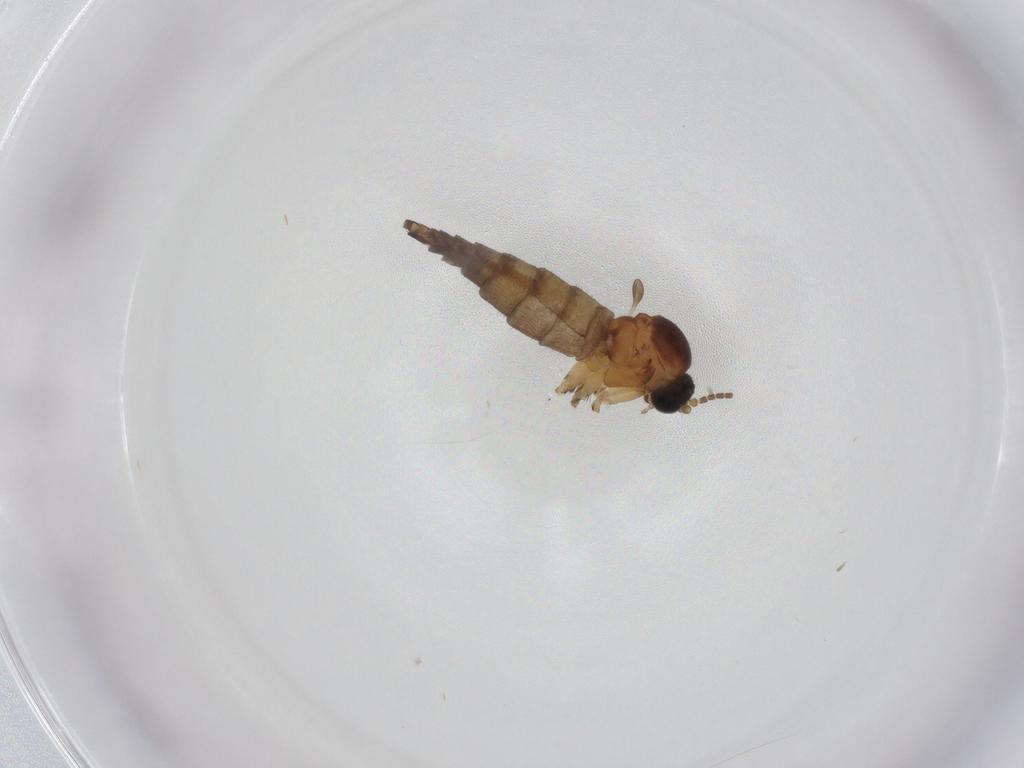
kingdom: Animalia
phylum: Arthropoda
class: Insecta
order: Diptera
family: Sciaridae
